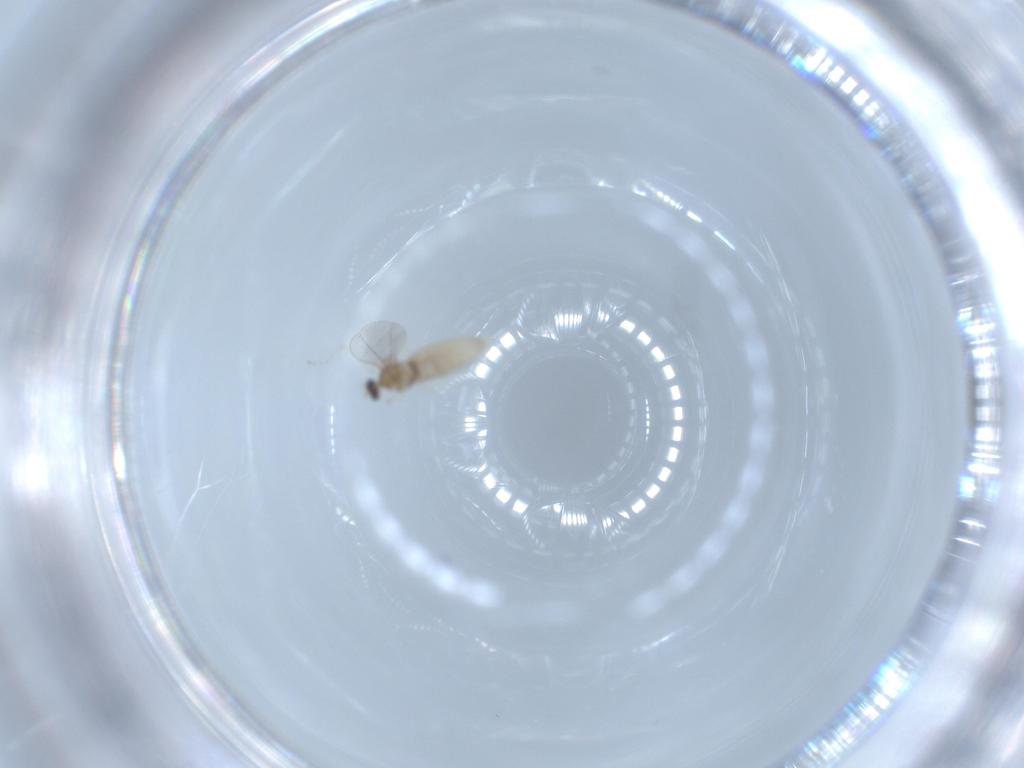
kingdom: Animalia
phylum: Arthropoda
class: Insecta
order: Diptera
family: Cecidomyiidae
